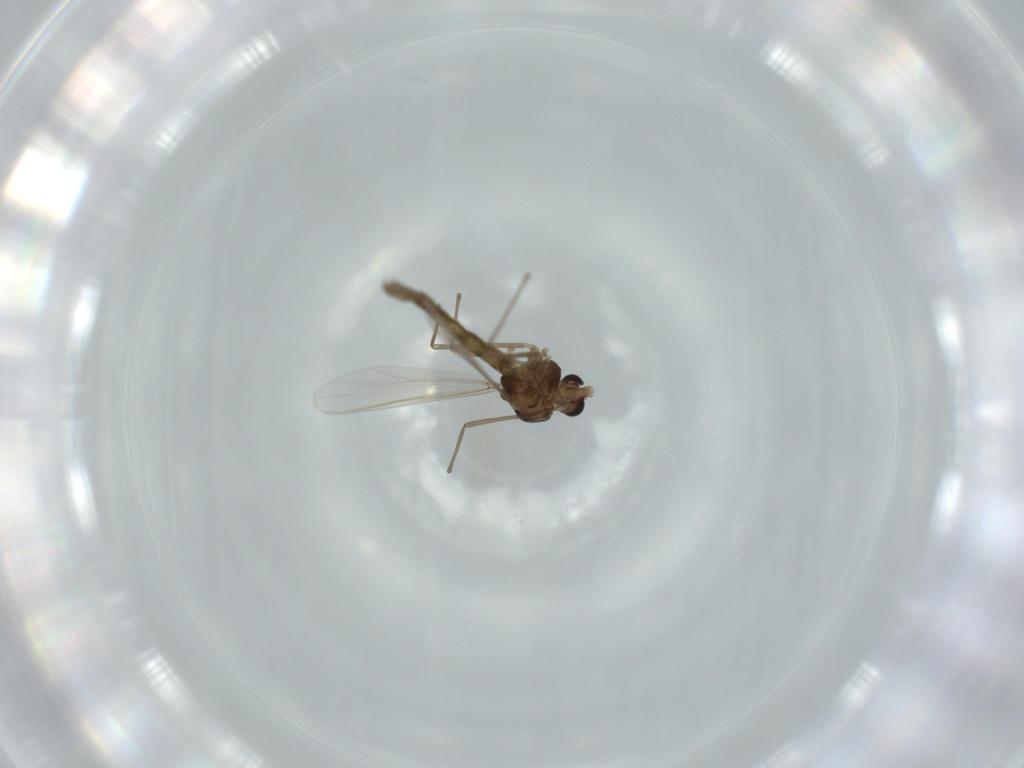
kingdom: Animalia
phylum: Arthropoda
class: Insecta
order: Diptera
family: Chironomidae
